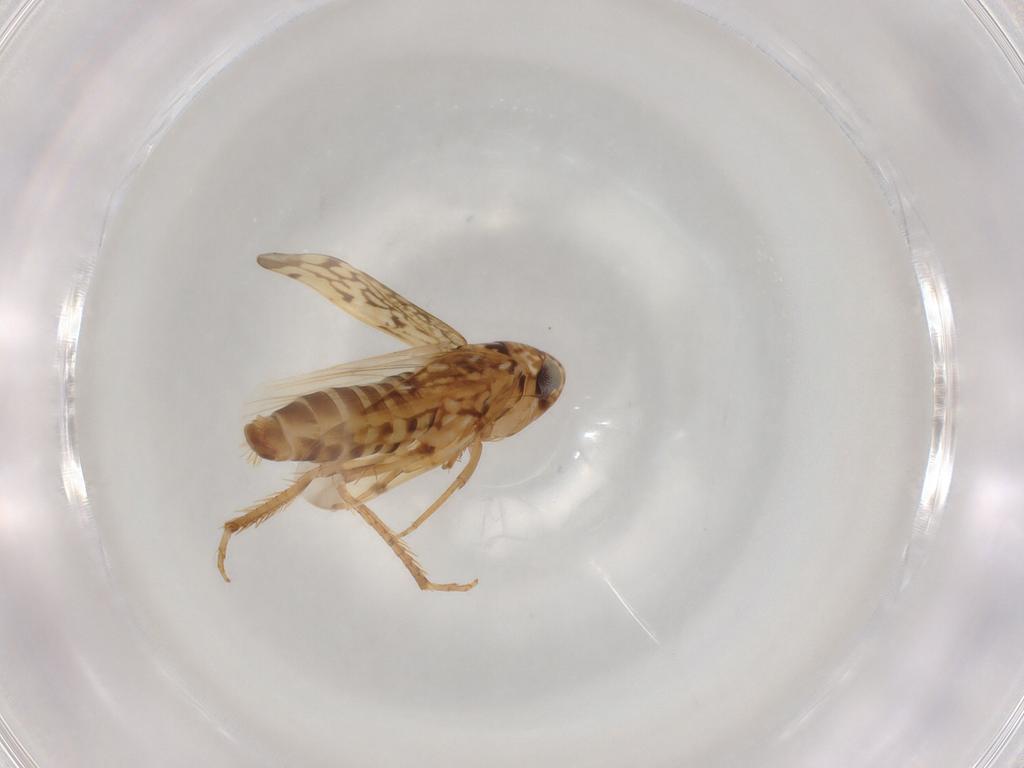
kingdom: Animalia
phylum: Arthropoda
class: Insecta
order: Hemiptera
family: Cicadellidae
